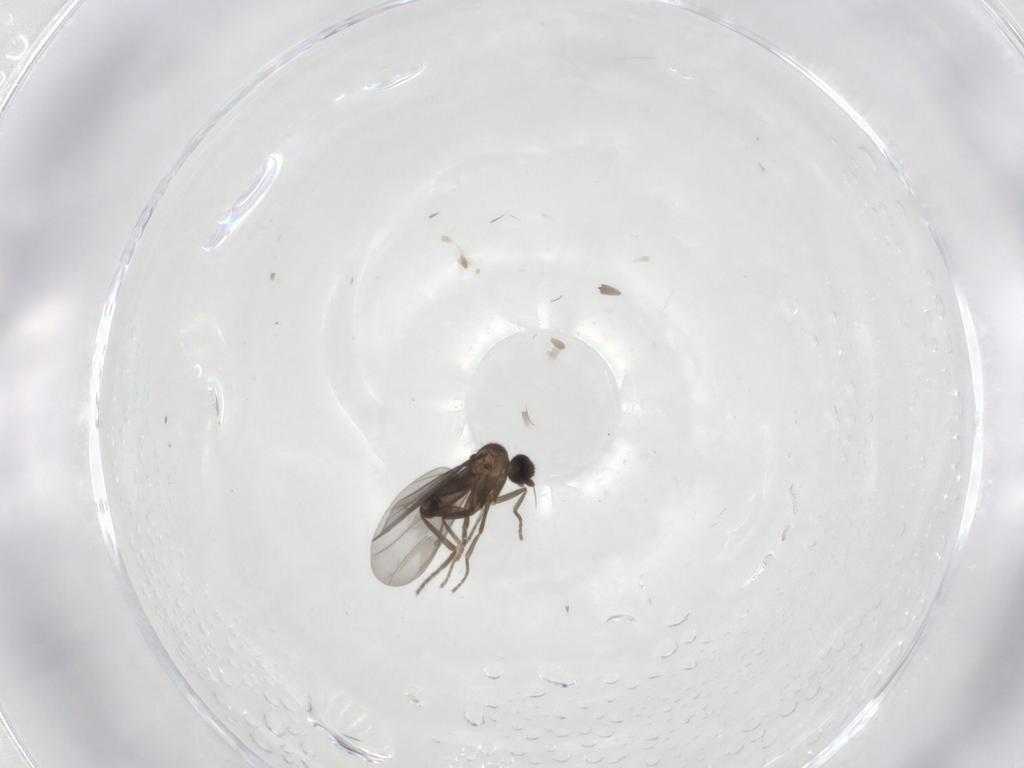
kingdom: Animalia
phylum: Arthropoda
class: Insecta
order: Diptera
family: Phoridae
